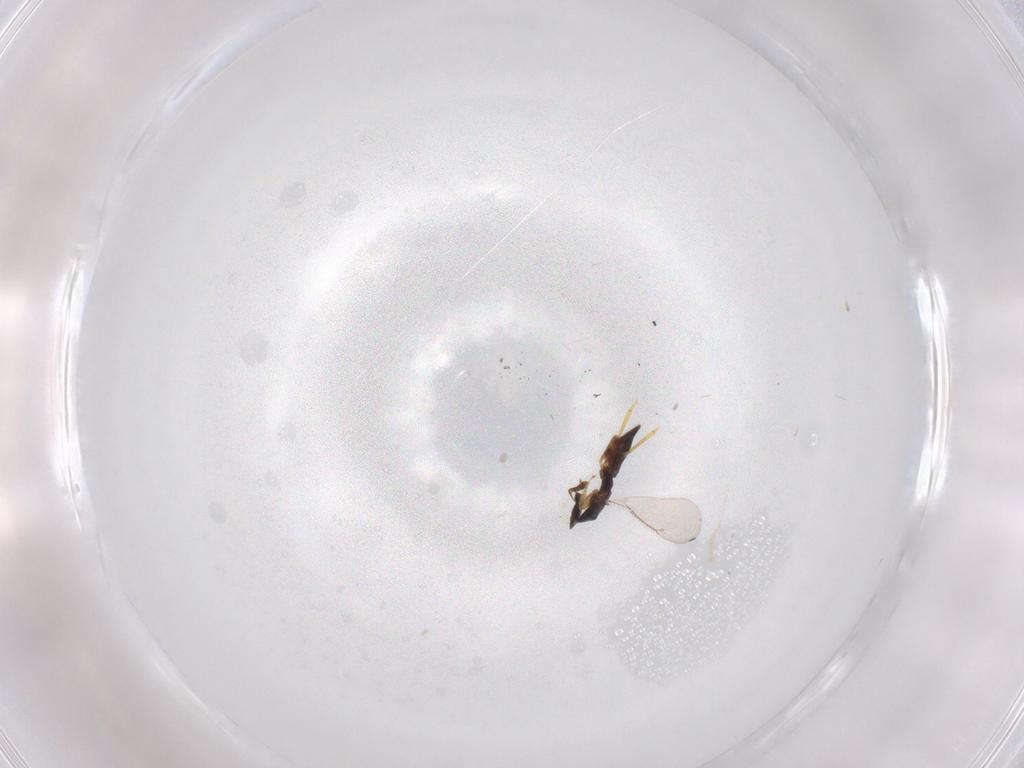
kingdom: Animalia
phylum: Arthropoda
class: Insecta
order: Hymenoptera
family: Eulophidae
